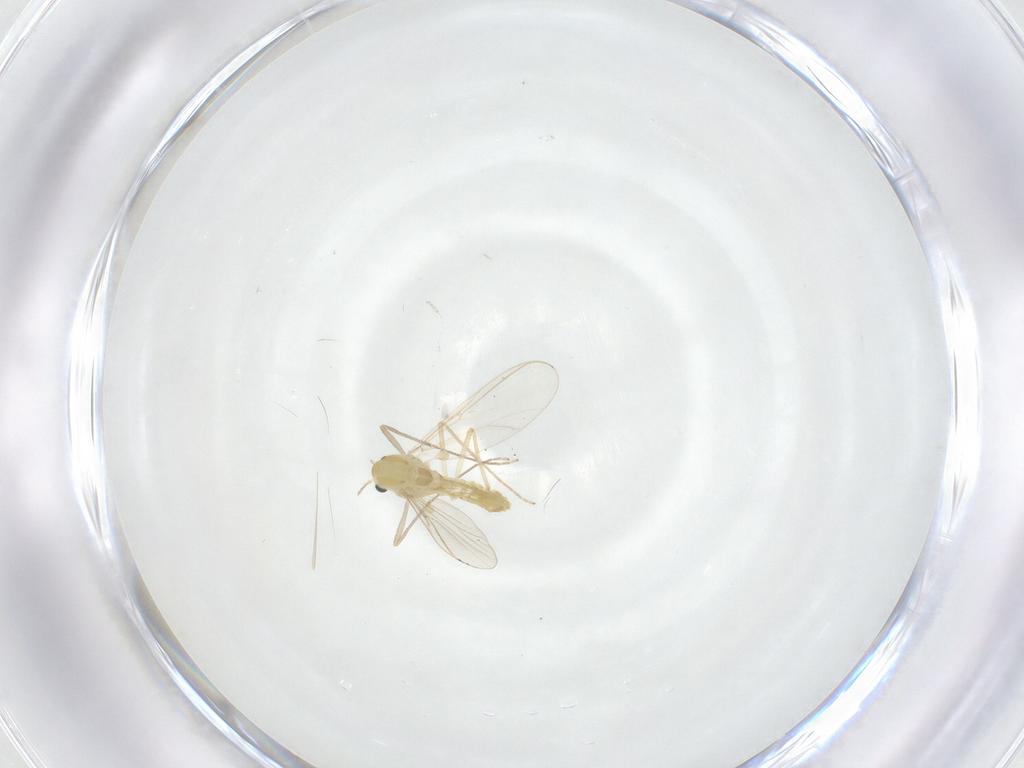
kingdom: Animalia
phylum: Arthropoda
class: Insecta
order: Diptera
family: Chironomidae
